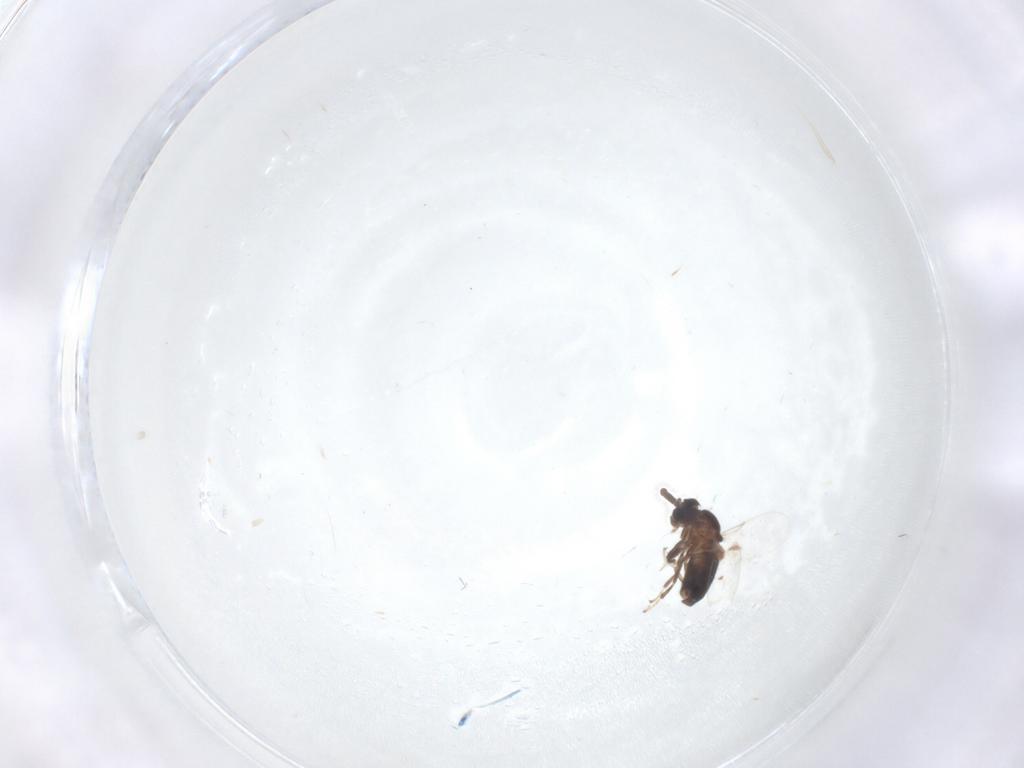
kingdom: Animalia
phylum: Arthropoda
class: Insecta
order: Diptera
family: Scatopsidae
